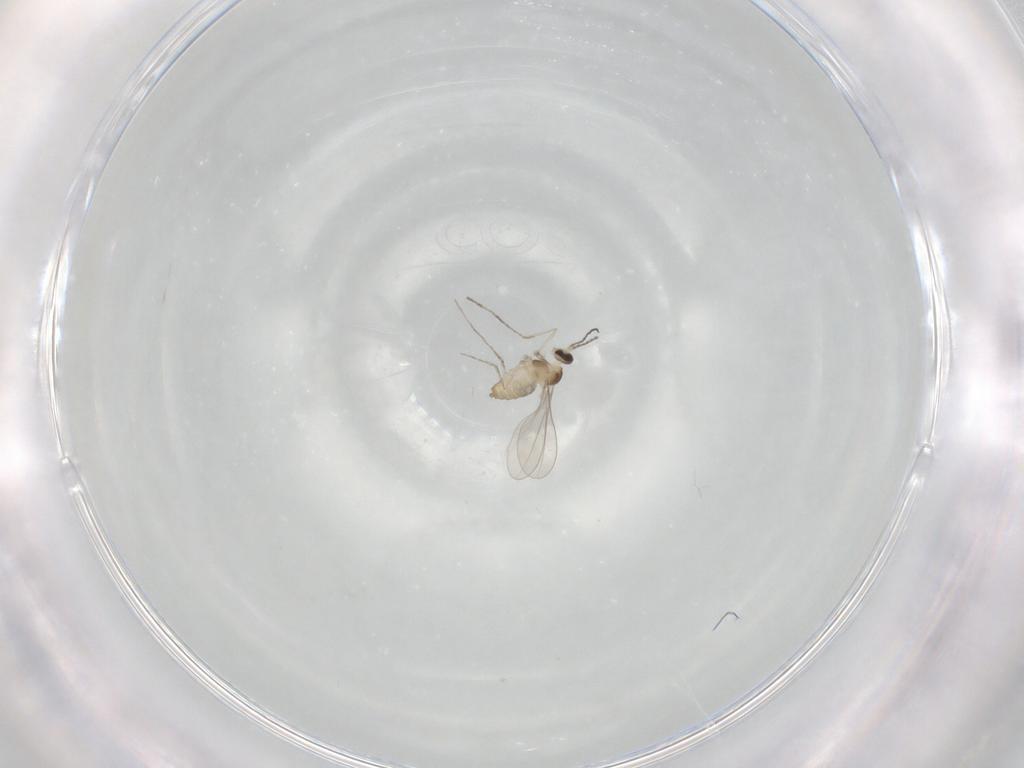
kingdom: Animalia
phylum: Arthropoda
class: Insecta
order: Diptera
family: Cecidomyiidae
